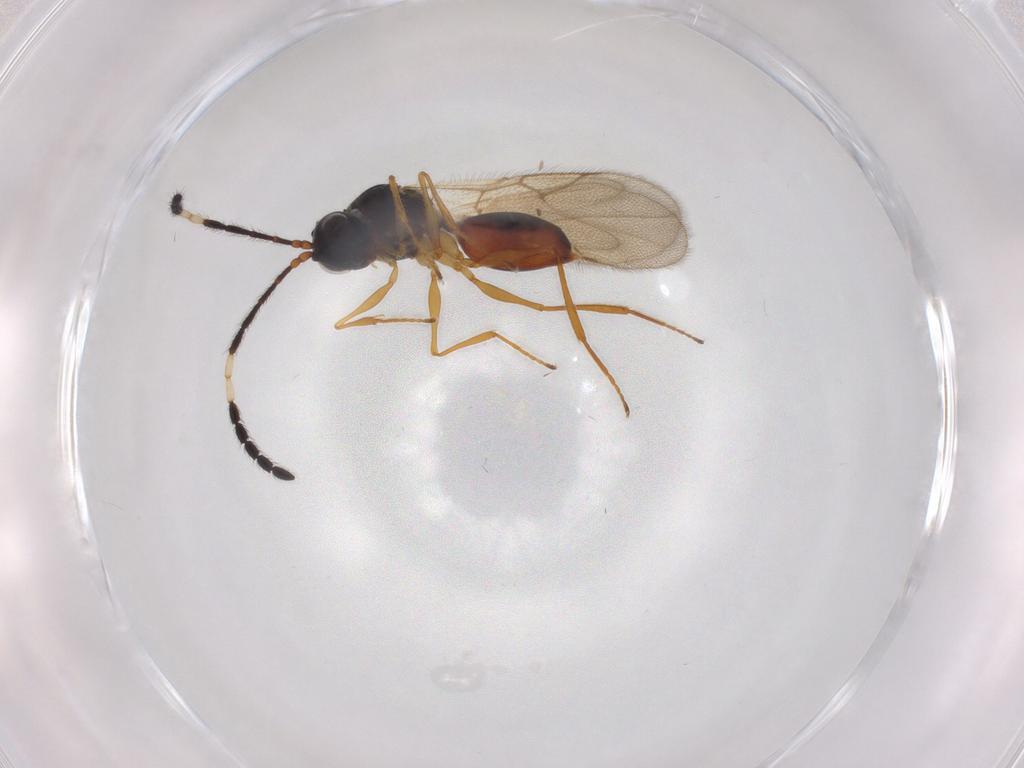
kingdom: Animalia
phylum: Arthropoda
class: Insecta
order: Hymenoptera
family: Figitidae
